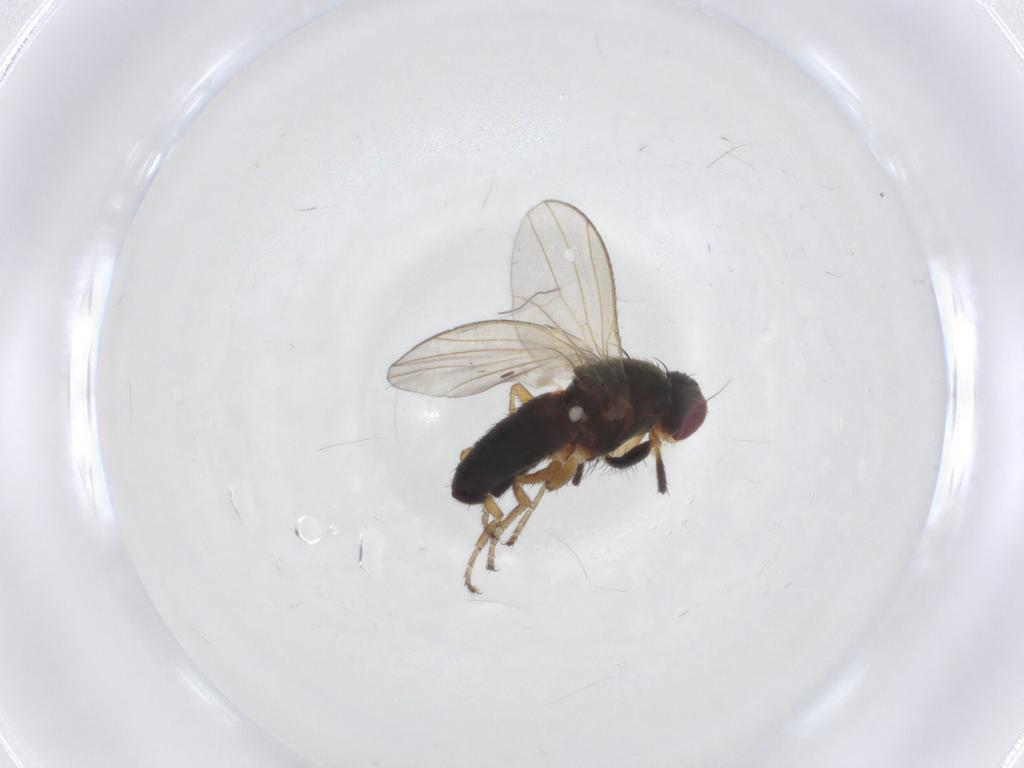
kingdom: Animalia
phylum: Arthropoda
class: Insecta
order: Diptera
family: Heleomyzidae
